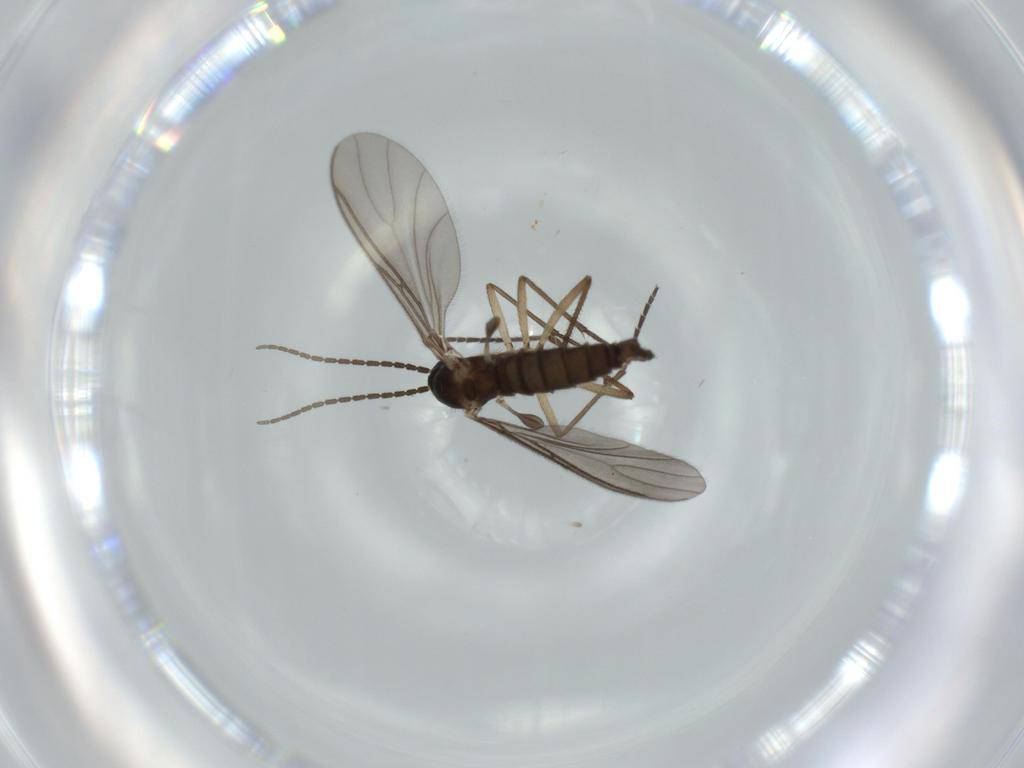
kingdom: Animalia
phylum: Arthropoda
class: Insecta
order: Diptera
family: Sciaridae
